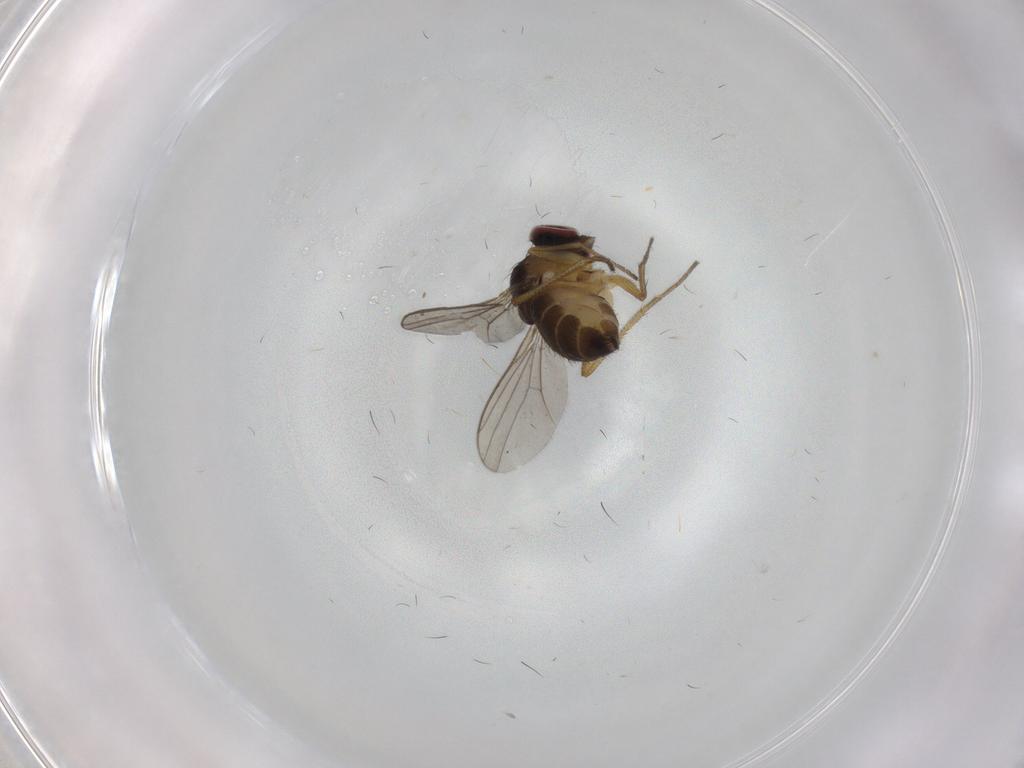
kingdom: Animalia
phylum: Arthropoda
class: Insecta
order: Diptera
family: Dolichopodidae
